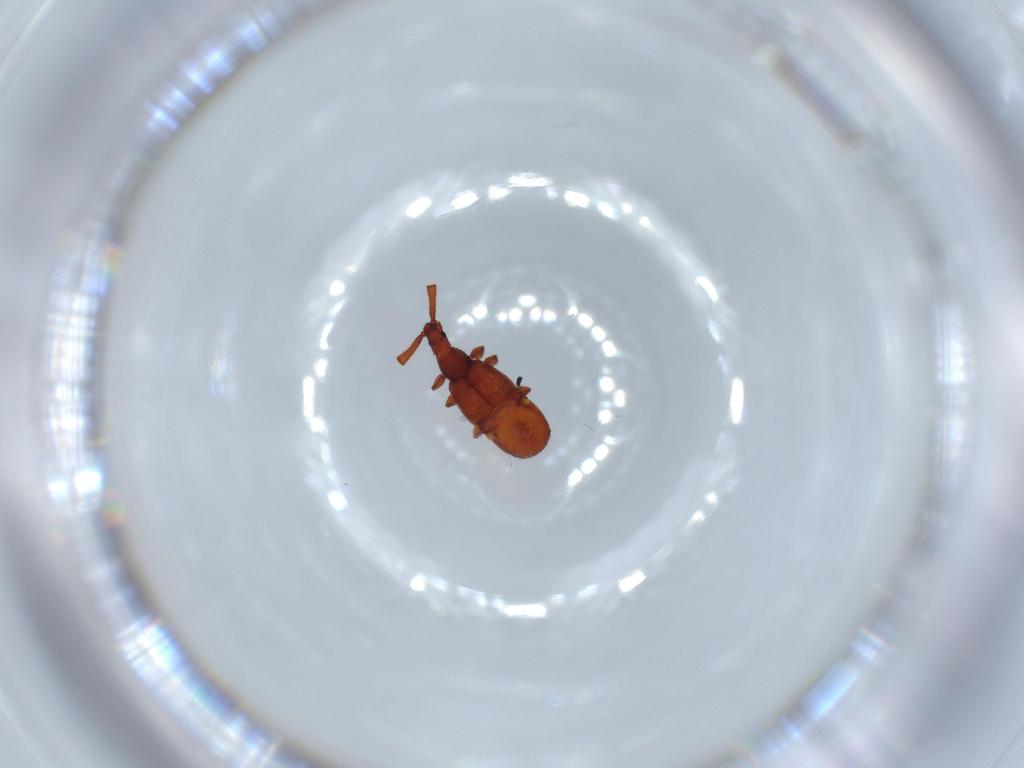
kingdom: Animalia
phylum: Arthropoda
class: Insecta
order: Coleoptera
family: Staphylinidae
